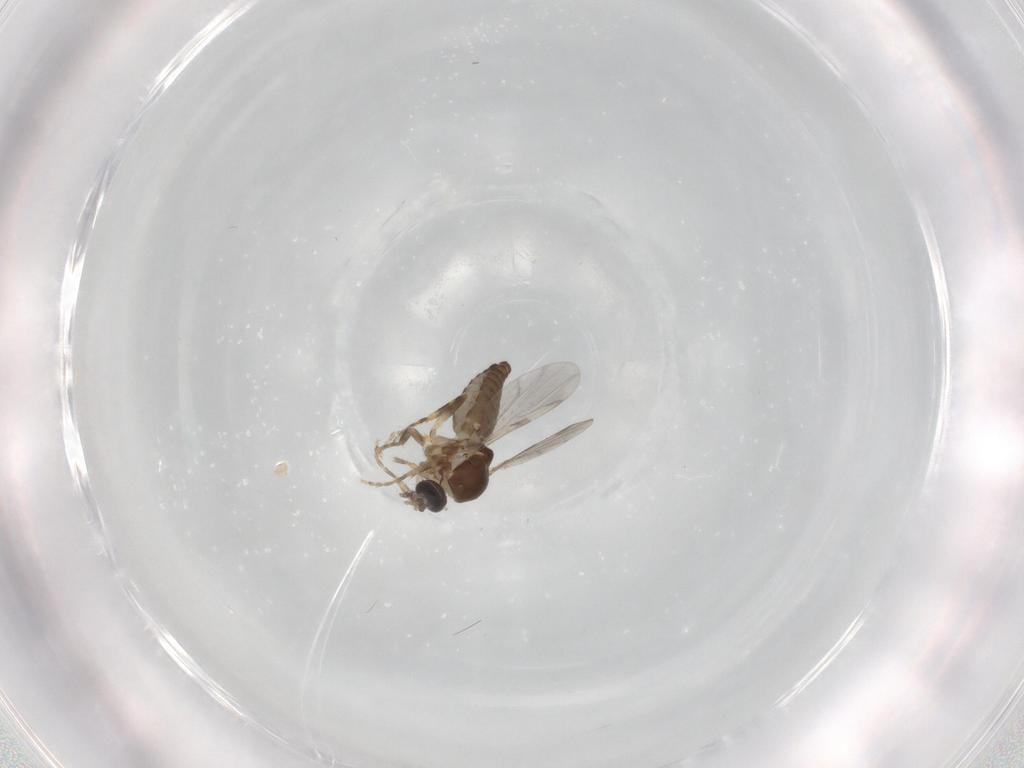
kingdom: Animalia
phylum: Arthropoda
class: Insecta
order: Diptera
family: Ceratopogonidae
